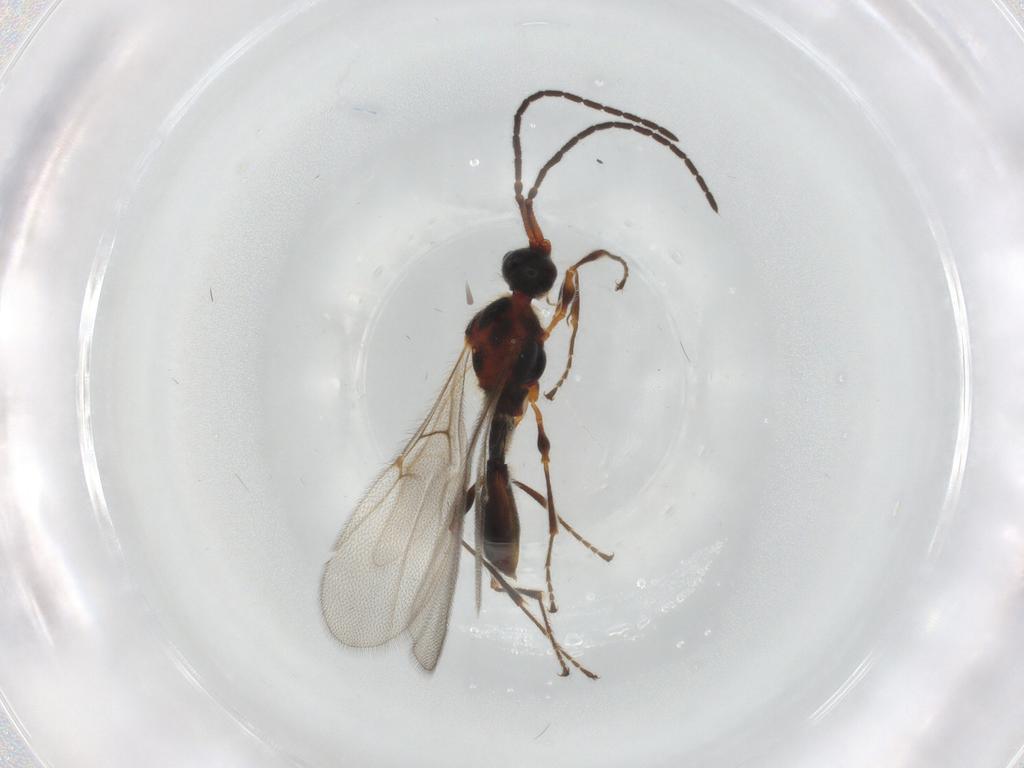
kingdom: Animalia
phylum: Arthropoda
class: Insecta
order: Hymenoptera
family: Diapriidae
